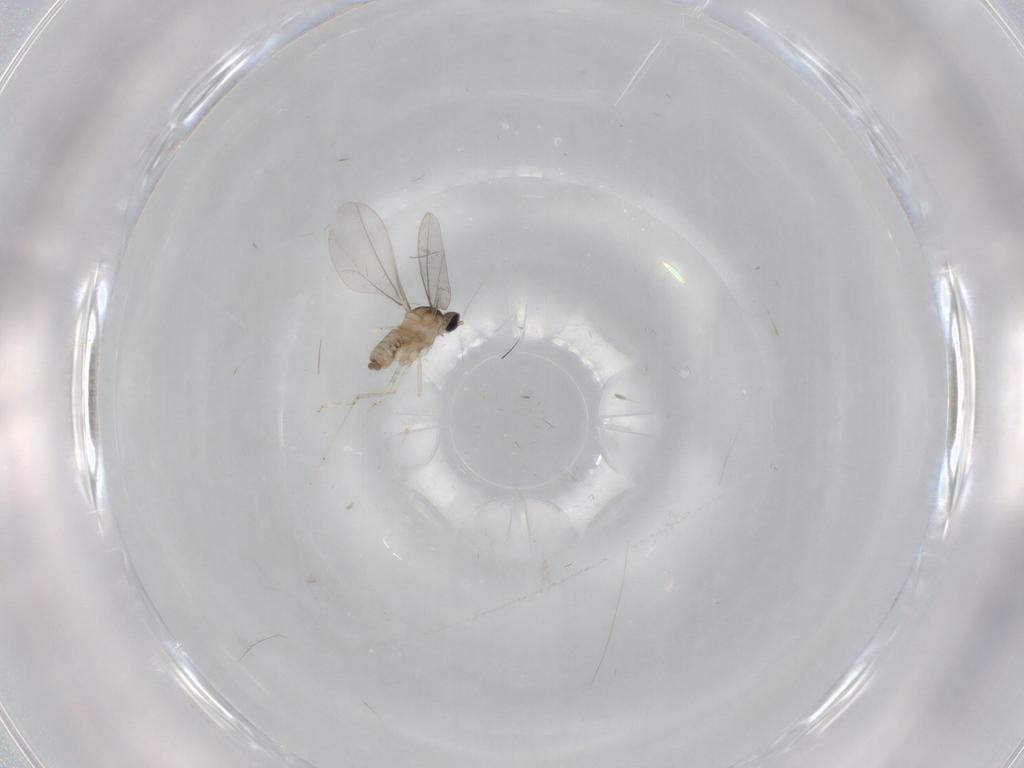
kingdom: Animalia
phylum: Arthropoda
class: Insecta
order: Diptera
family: Cecidomyiidae
